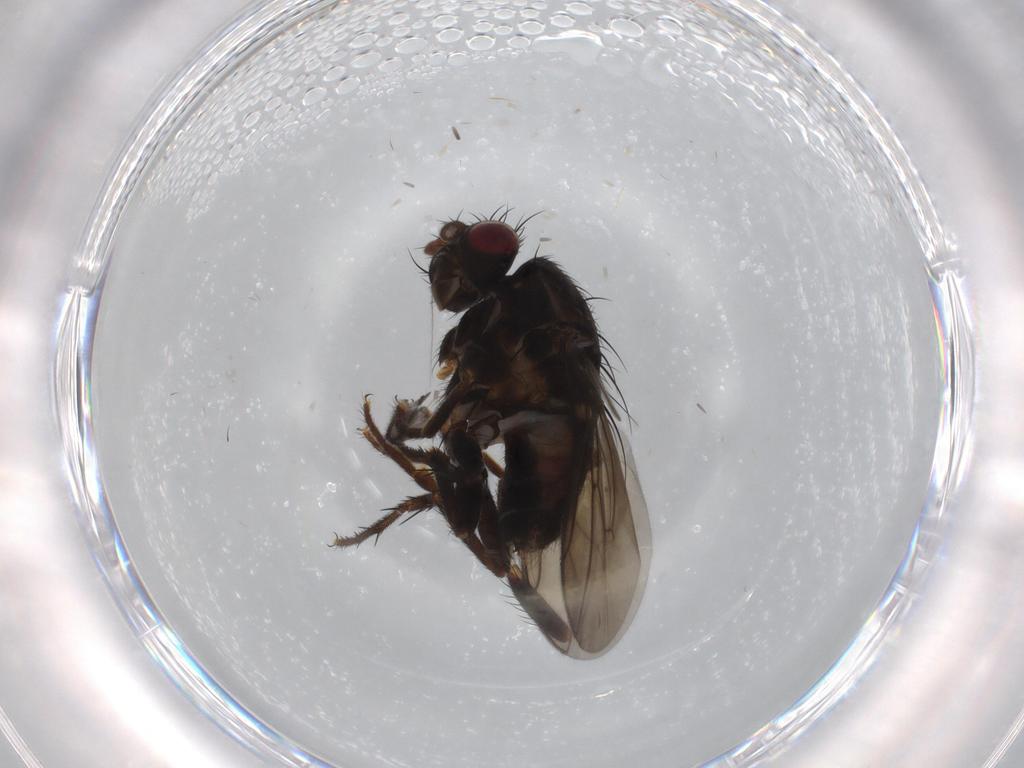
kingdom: Animalia
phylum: Arthropoda
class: Insecta
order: Diptera
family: Sphaeroceridae
